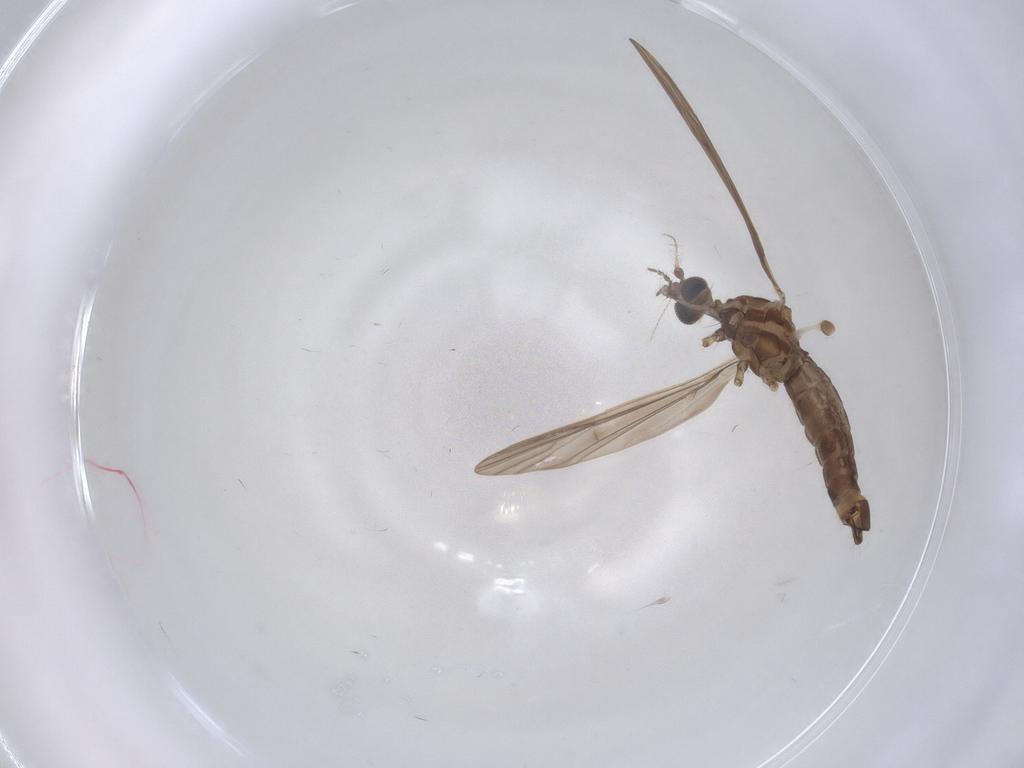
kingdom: Animalia
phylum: Arthropoda
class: Insecta
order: Diptera
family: Limoniidae
